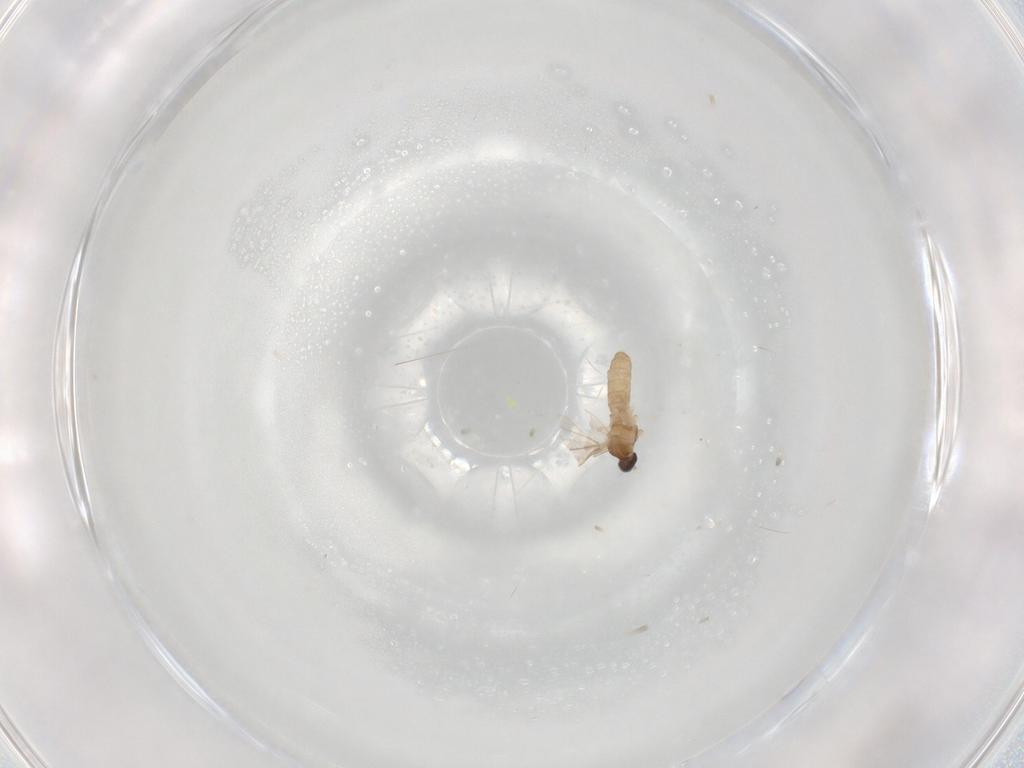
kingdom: Animalia
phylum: Arthropoda
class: Insecta
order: Diptera
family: Cecidomyiidae
